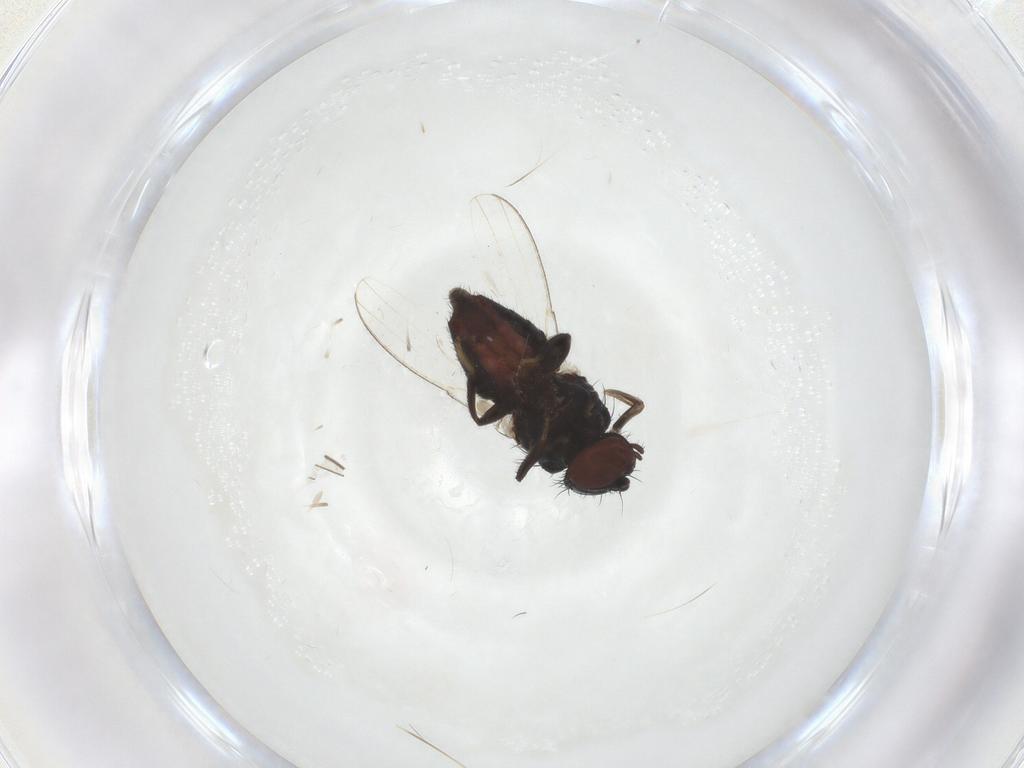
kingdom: Animalia
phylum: Arthropoda
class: Insecta
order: Diptera
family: Milichiidae
